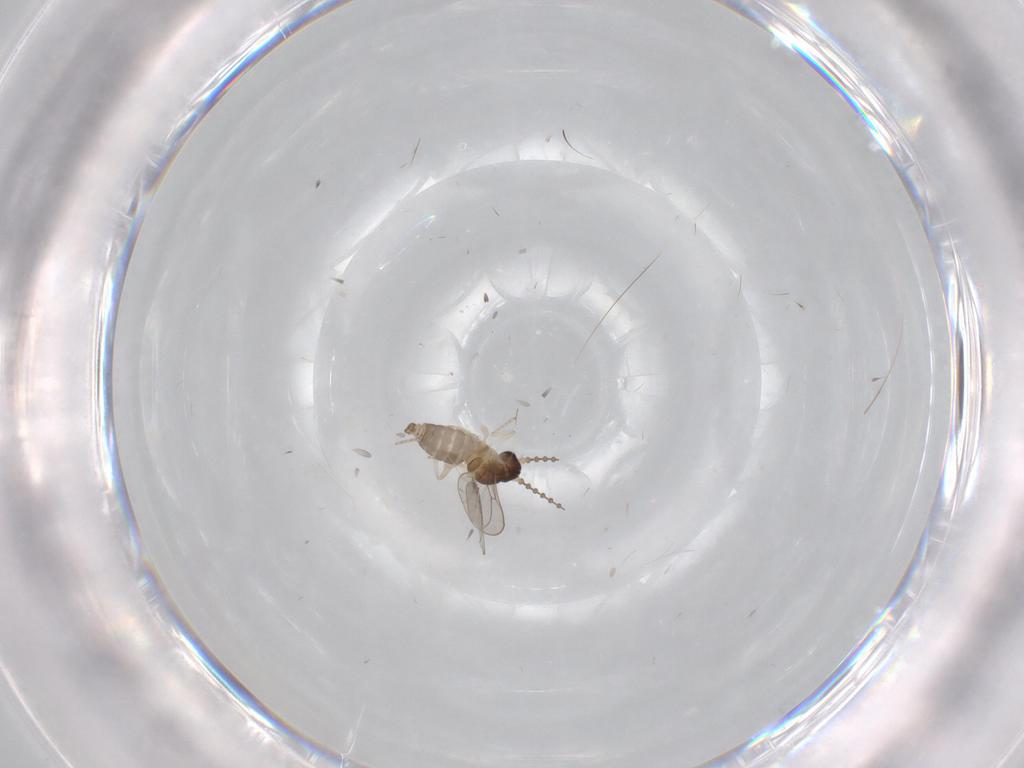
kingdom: Animalia
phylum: Arthropoda
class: Insecta
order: Diptera
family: Cecidomyiidae
